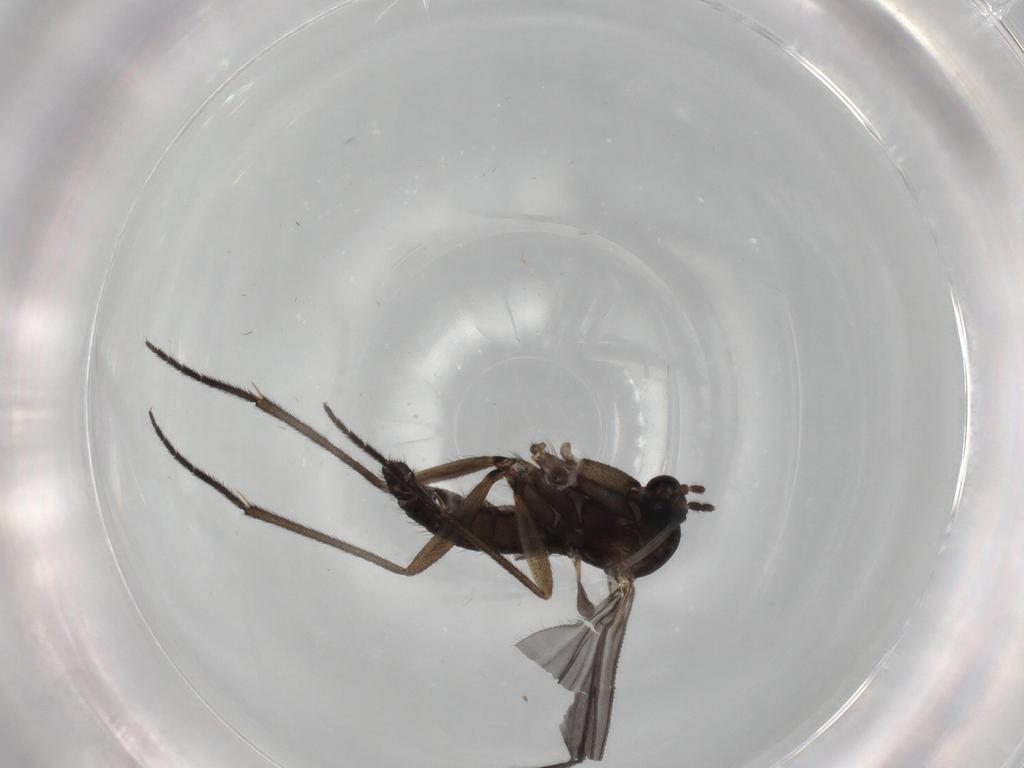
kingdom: Animalia
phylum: Arthropoda
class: Insecta
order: Diptera
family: Sciaridae
